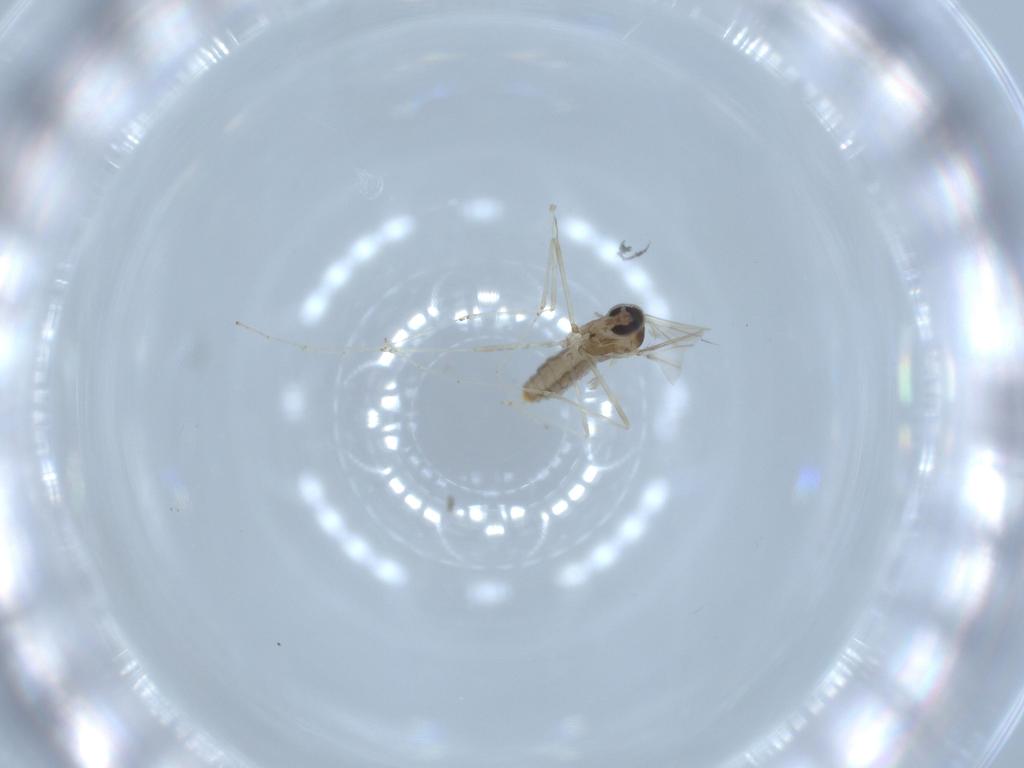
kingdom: Animalia
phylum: Arthropoda
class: Insecta
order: Diptera
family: Cecidomyiidae
